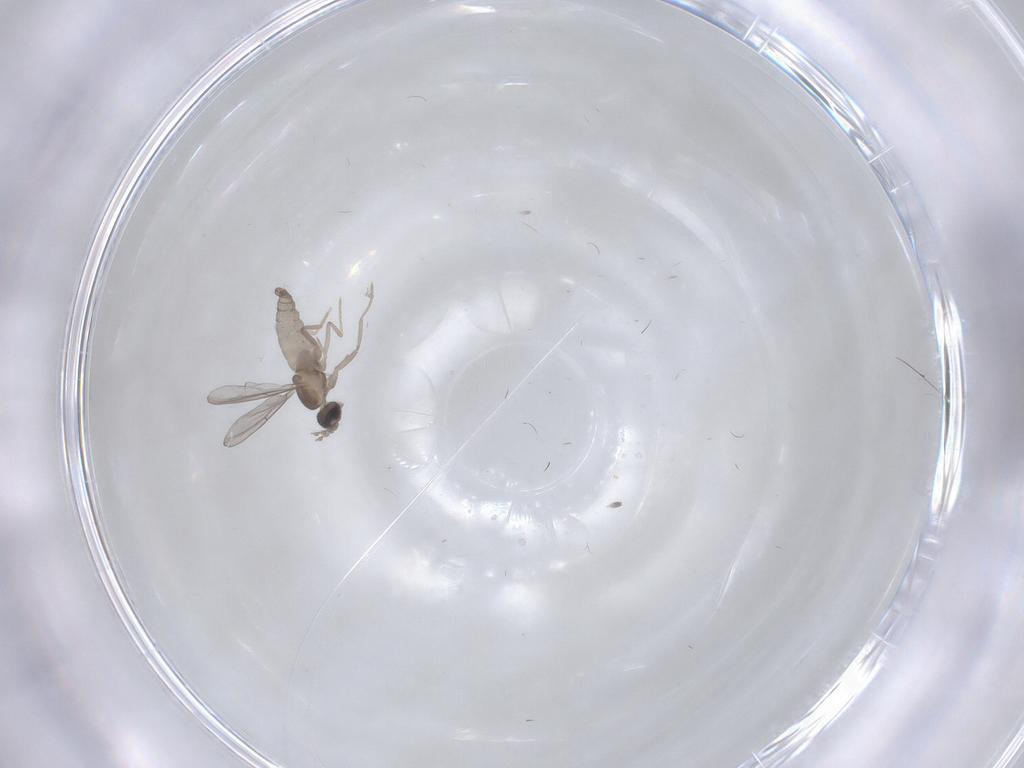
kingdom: Animalia
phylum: Arthropoda
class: Insecta
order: Diptera
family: Cecidomyiidae
